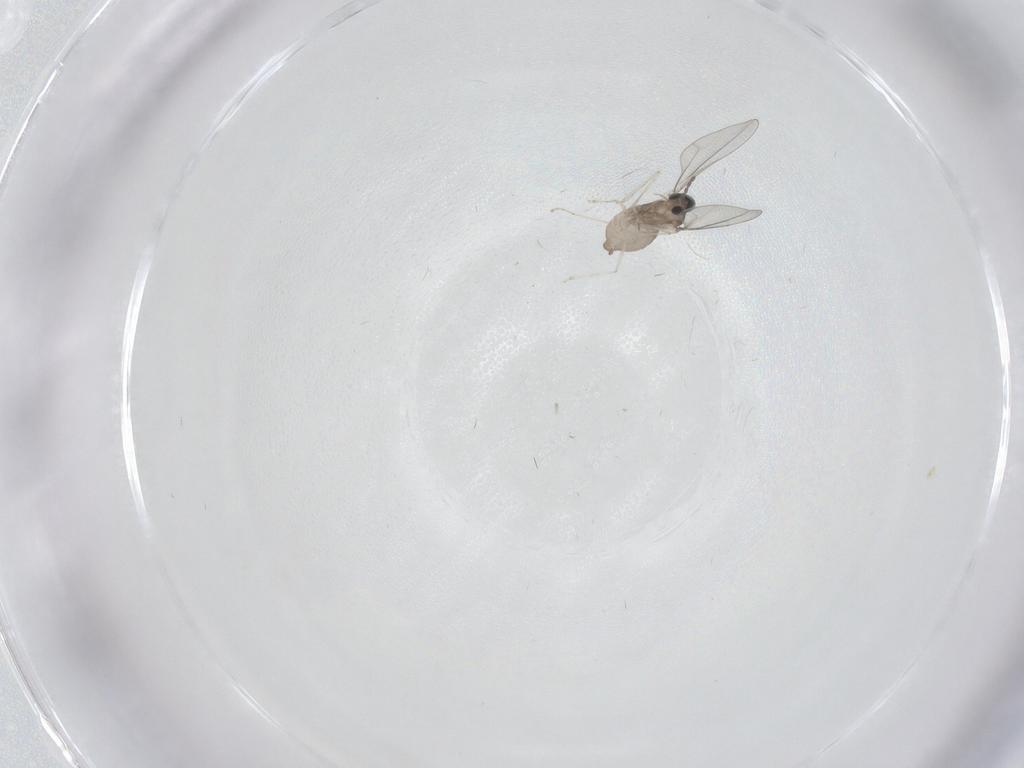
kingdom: Animalia
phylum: Arthropoda
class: Insecta
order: Diptera
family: Cecidomyiidae
